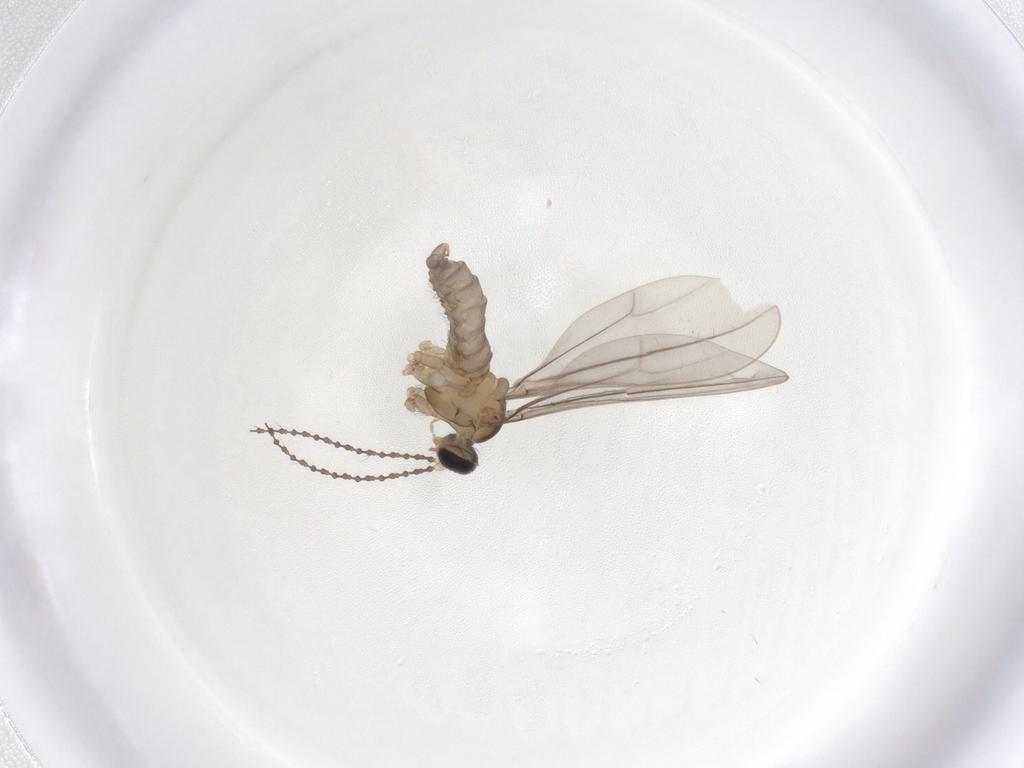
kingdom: Animalia
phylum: Arthropoda
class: Insecta
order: Diptera
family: Cecidomyiidae
